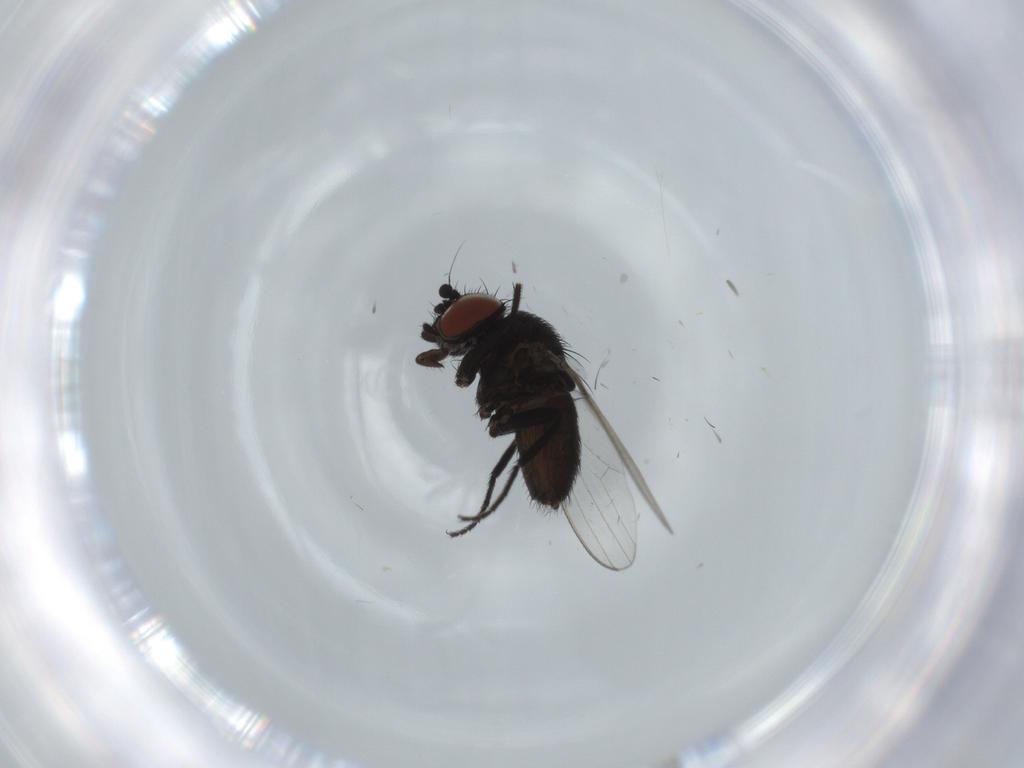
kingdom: Animalia
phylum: Arthropoda
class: Insecta
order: Diptera
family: Milichiidae
